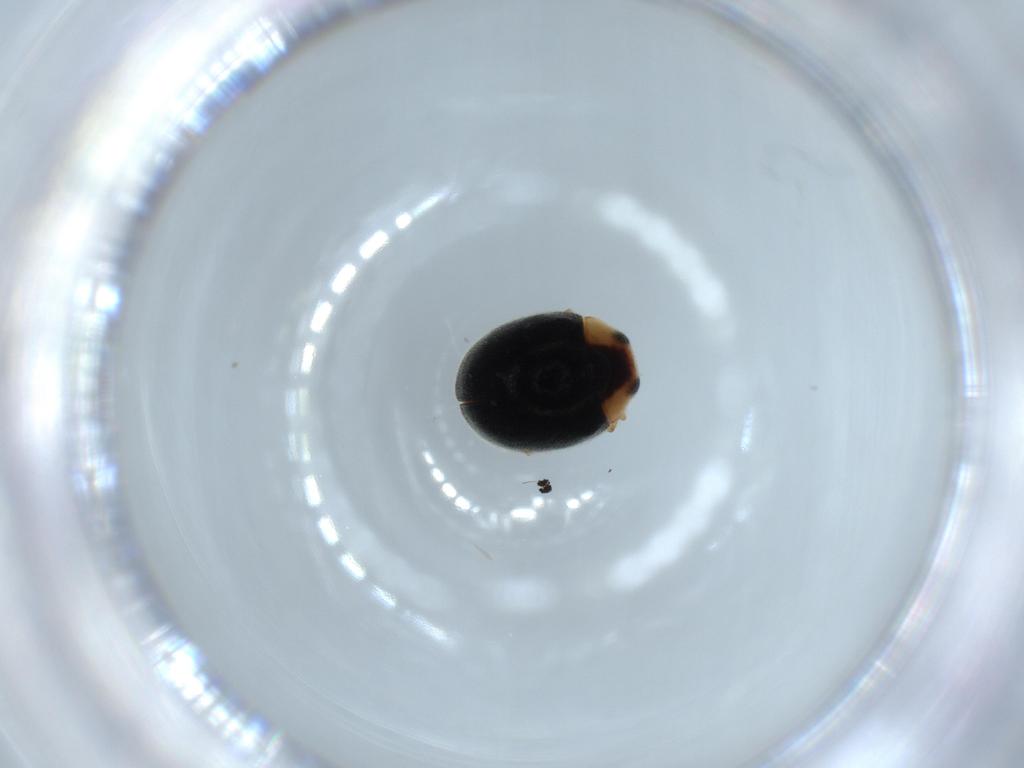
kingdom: Animalia
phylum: Arthropoda
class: Insecta
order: Coleoptera
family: Coccinellidae
